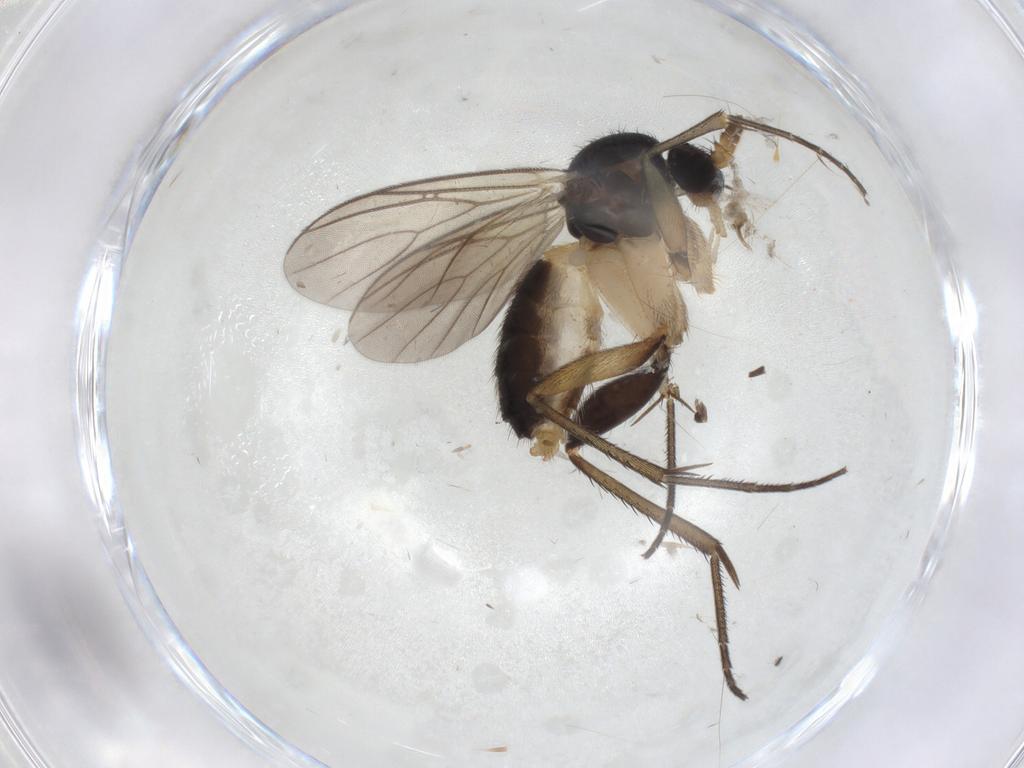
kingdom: Animalia
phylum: Arthropoda
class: Insecta
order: Diptera
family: Mycetophilidae
